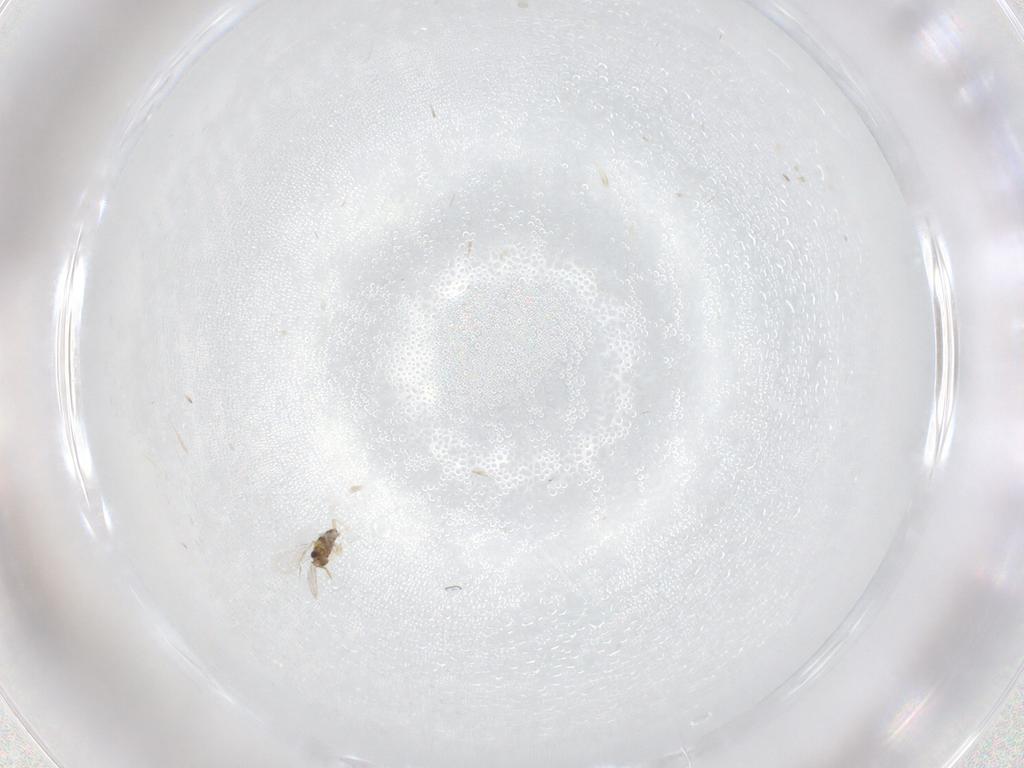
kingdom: Animalia
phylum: Arthropoda
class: Insecta
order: Hymenoptera
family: Aphelinidae
